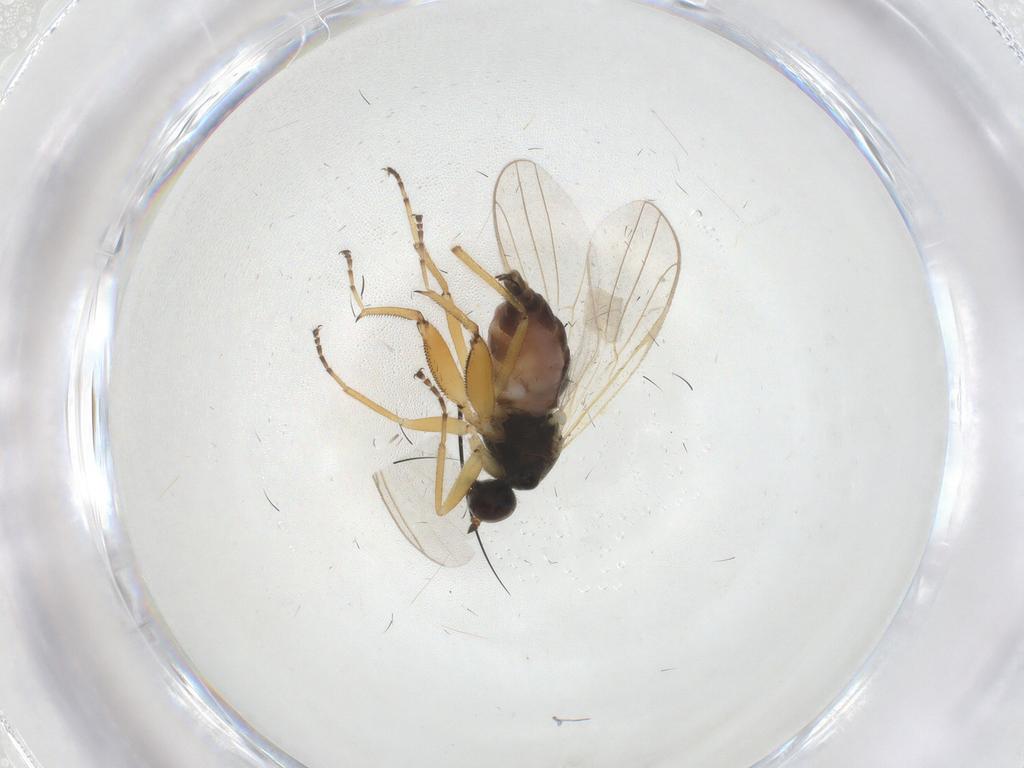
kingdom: Animalia
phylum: Arthropoda
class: Insecta
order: Diptera
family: Hybotidae
